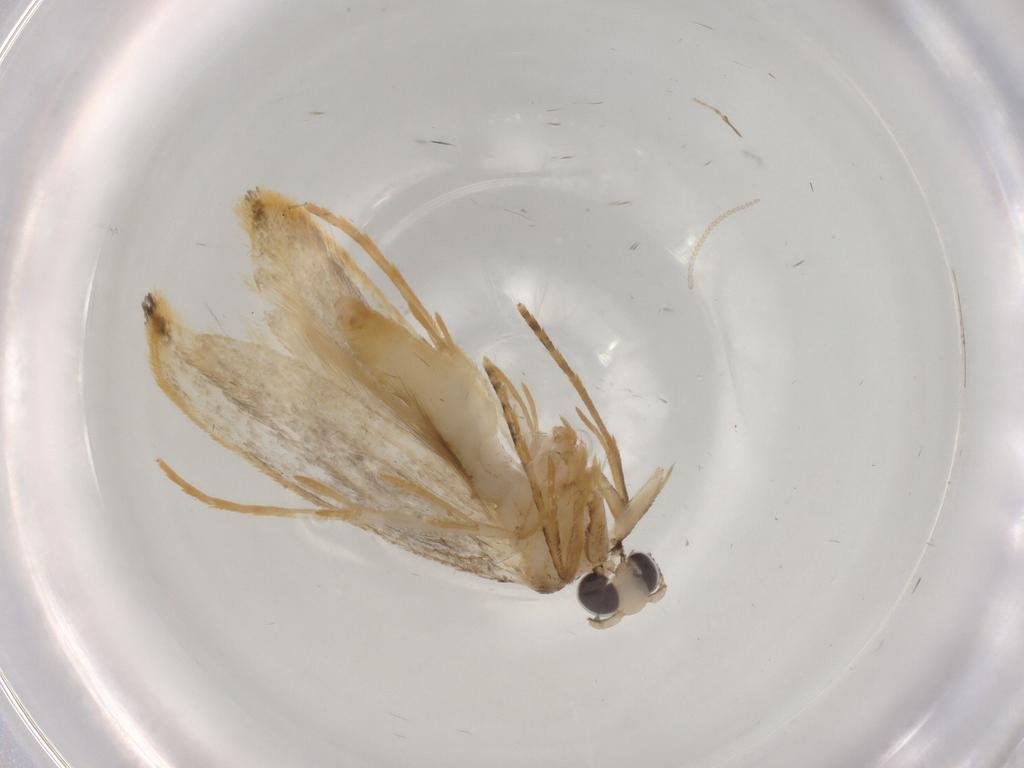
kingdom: Animalia
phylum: Arthropoda
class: Insecta
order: Lepidoptera
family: Tineidae
